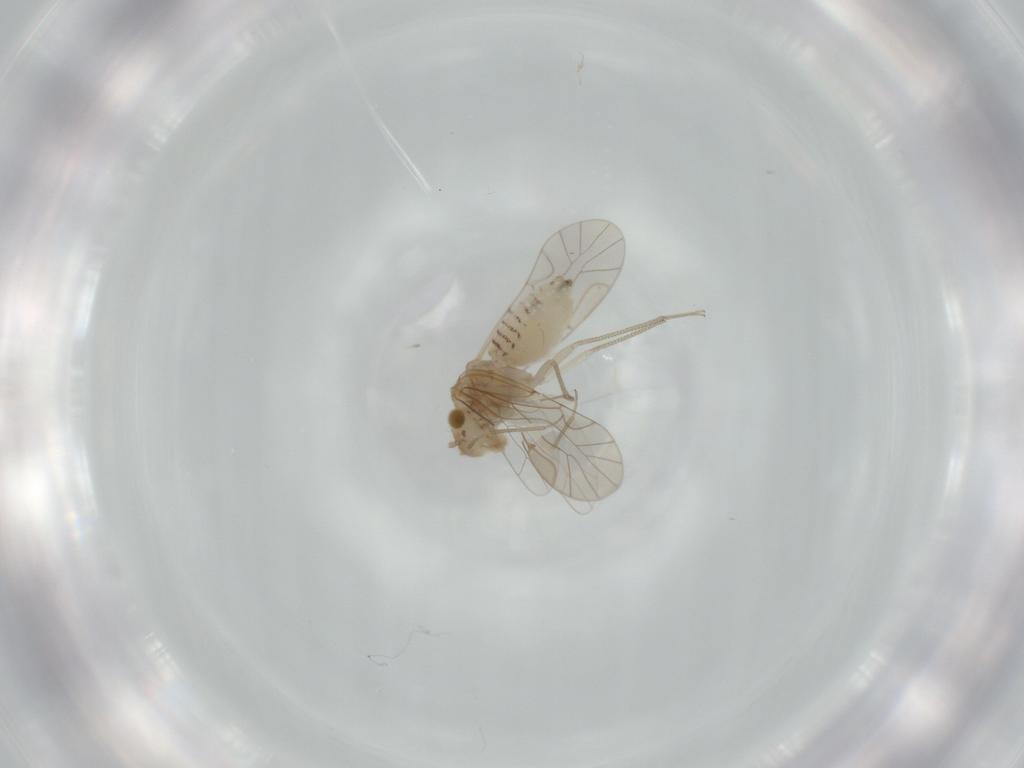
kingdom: Animalia
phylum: Arthropoda
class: Insecta
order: Psocodea
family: Lachesillidae
